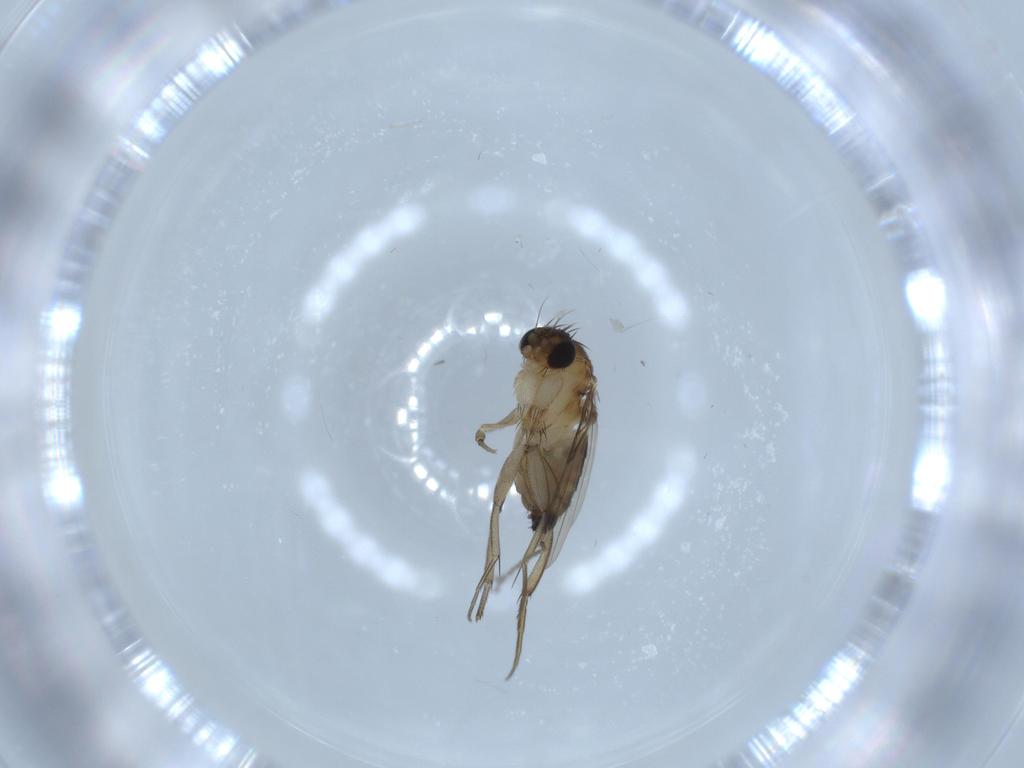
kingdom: Animalia
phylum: Arthropoda
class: Insecta
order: Diptera
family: Phoridae
